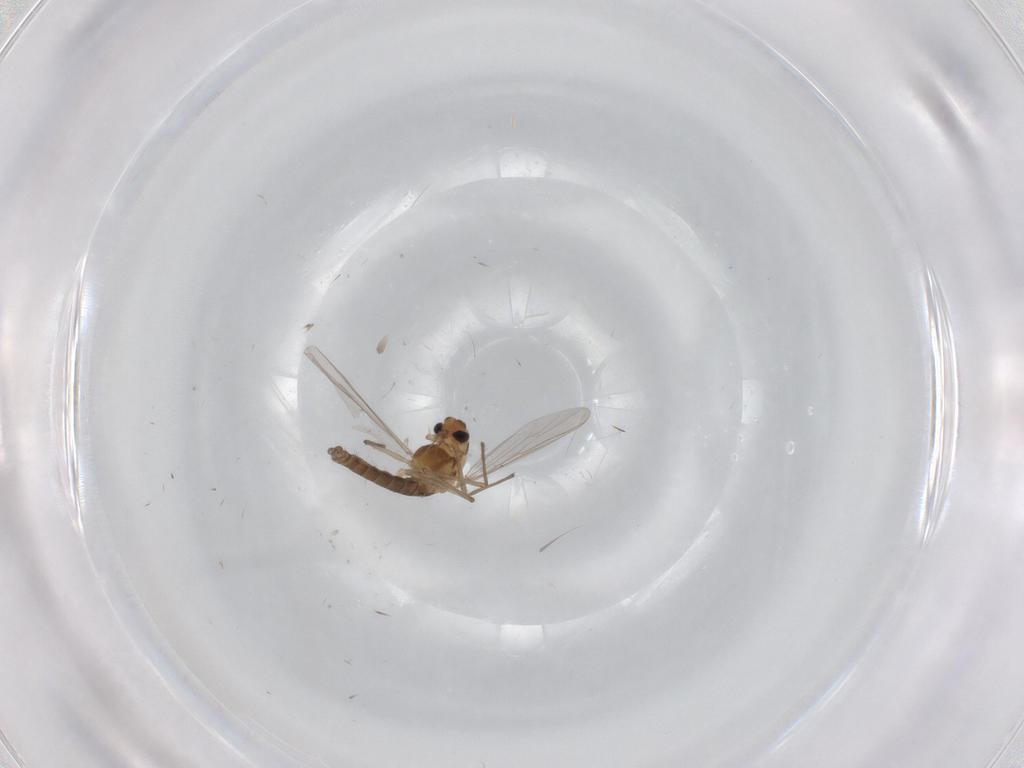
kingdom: Animalia
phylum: Arthropoda
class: Insecta
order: Diptera
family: Chironomidae
